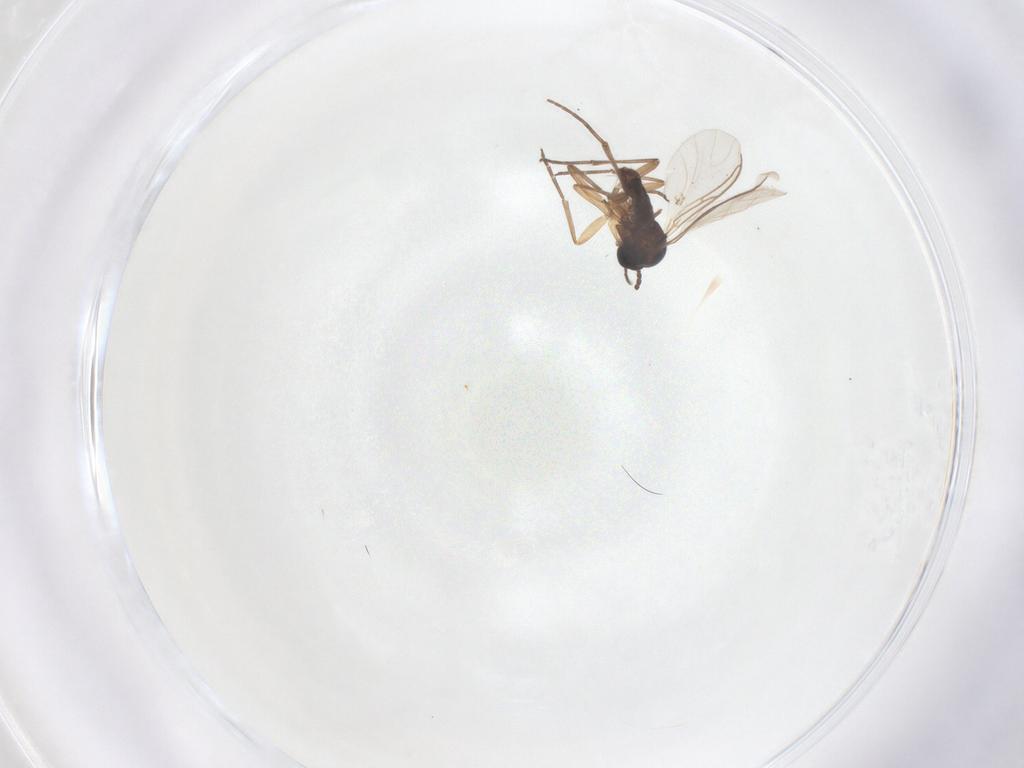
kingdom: Animalia
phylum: Arthropoda
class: Insecta
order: Diptera
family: Sciaridae
